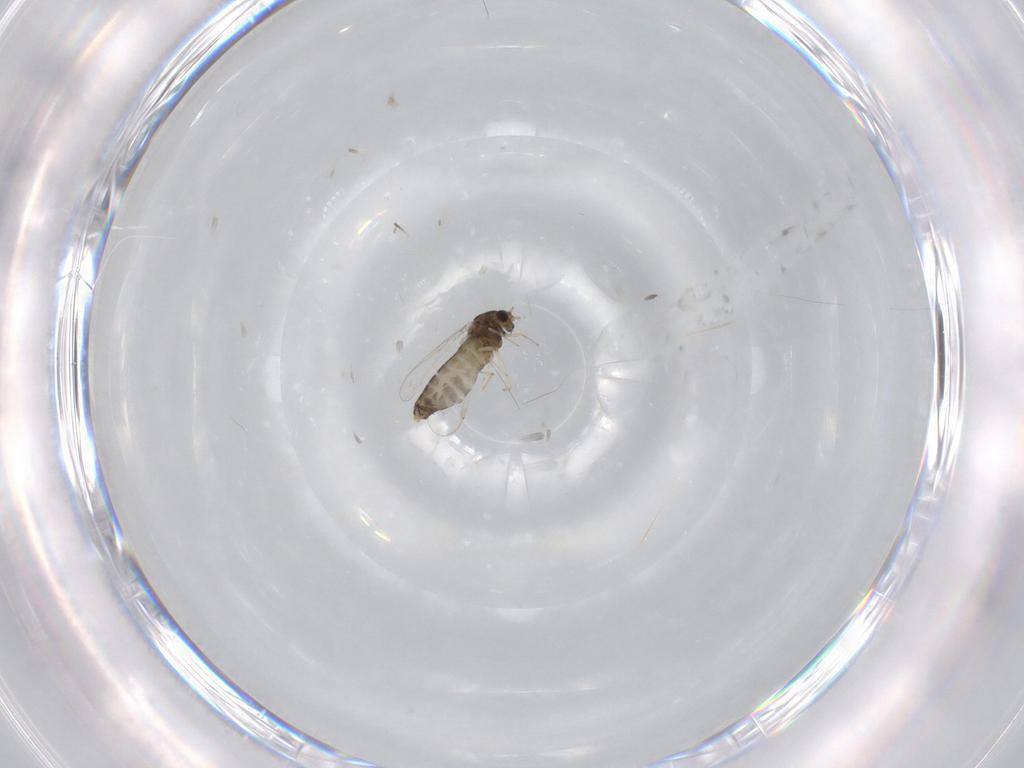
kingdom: Animalia
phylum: Arthropoda
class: Insecta
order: Diptera
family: Chironomidae
